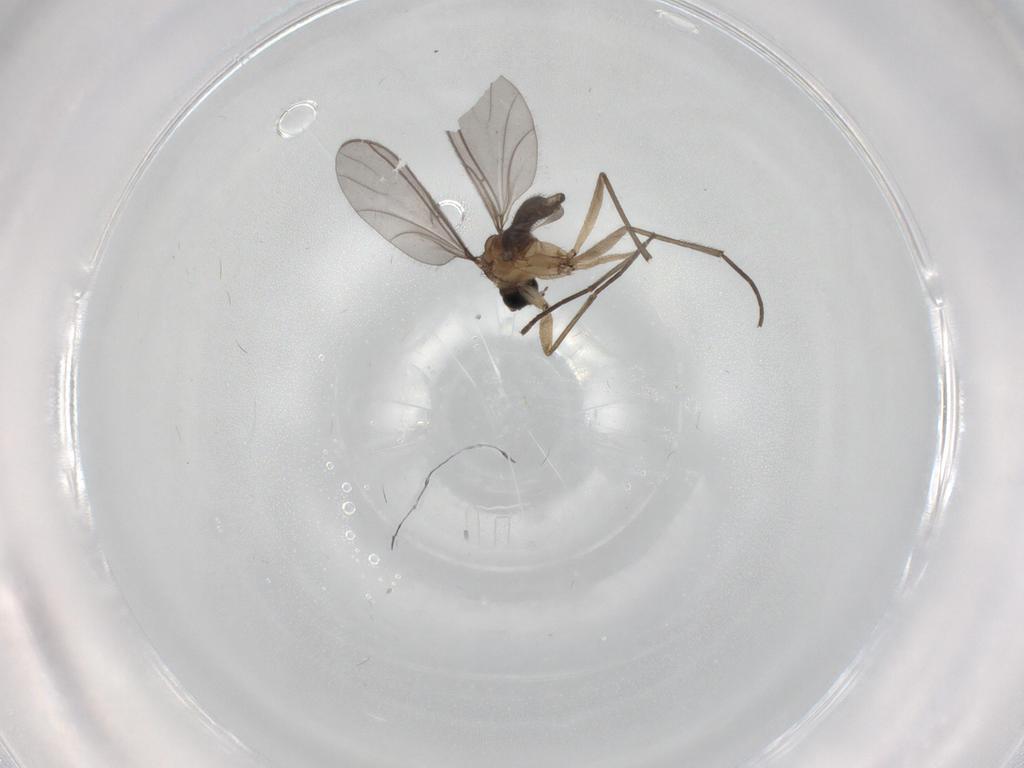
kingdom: Animalia
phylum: Arthropoda
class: Insecta
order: Diptera
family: Sciaridae
